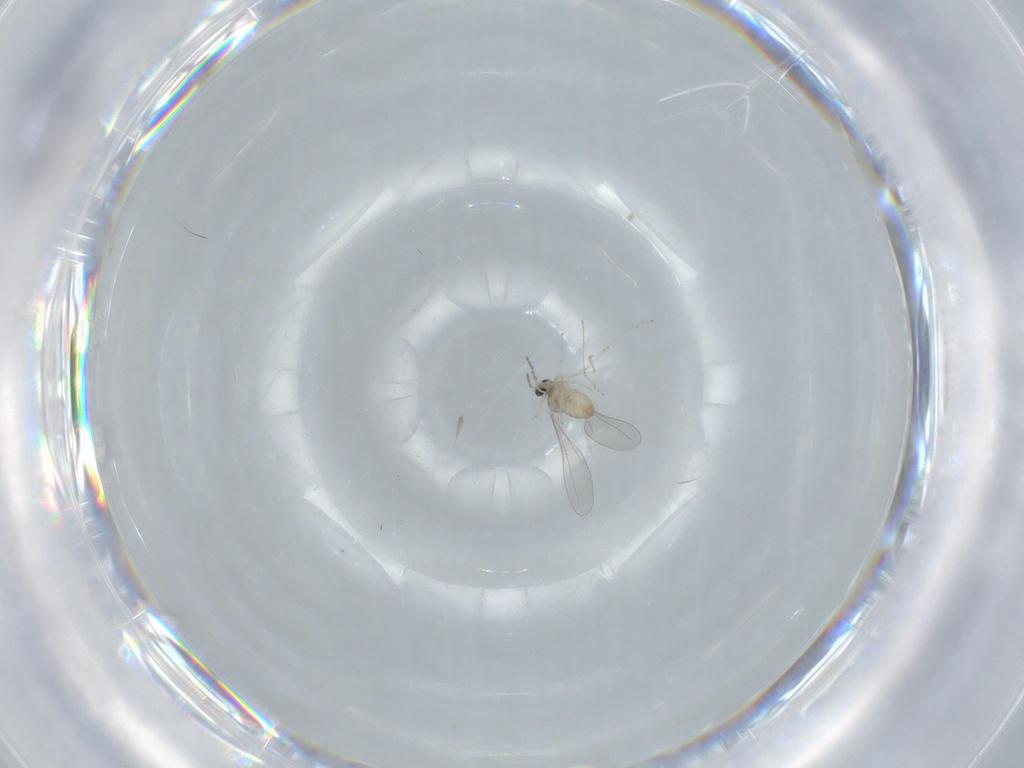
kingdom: Animalia
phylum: Arthropoda
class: Insecta
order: Diptera
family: Cecidomyiidae
